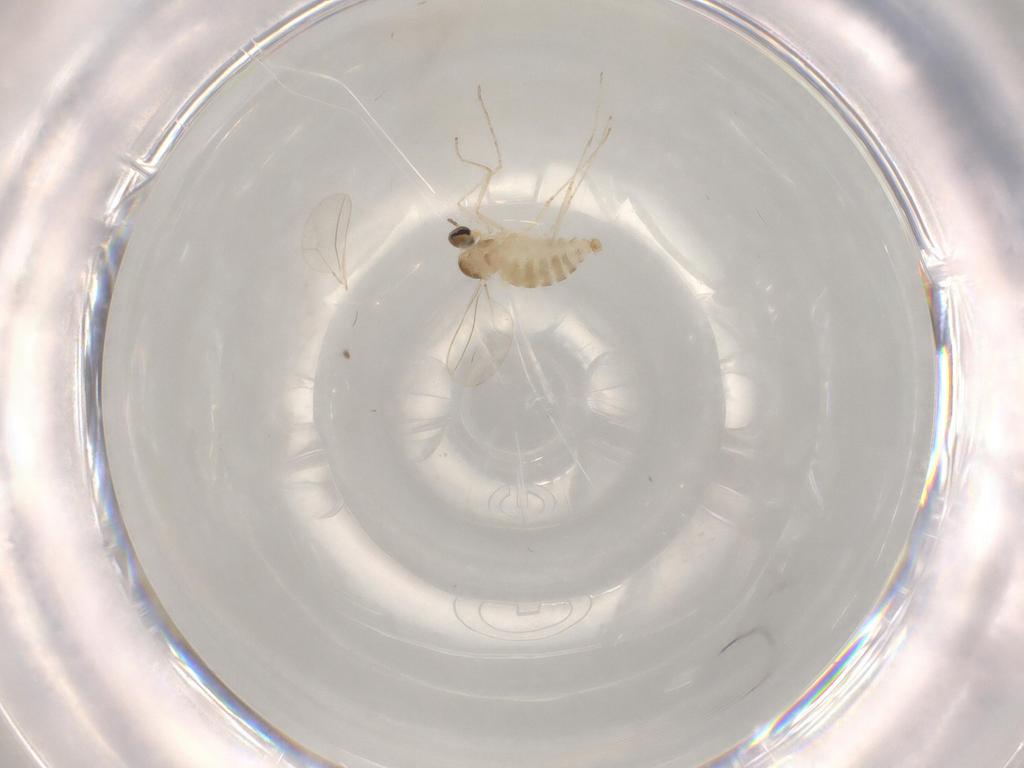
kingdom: Animalia
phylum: Arthropoda
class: Insecta
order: Diptera
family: Cecidomyiidae
